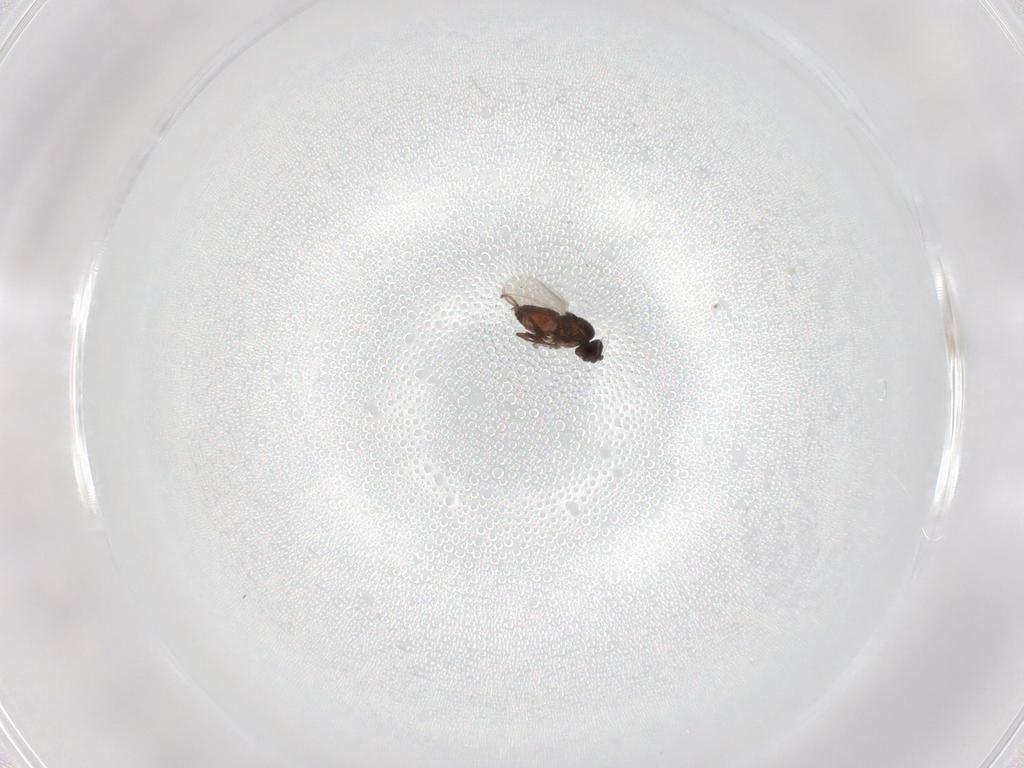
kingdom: Animalia
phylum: Arthropoda
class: Insecta
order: Diptera
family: Sphaeroceridae
